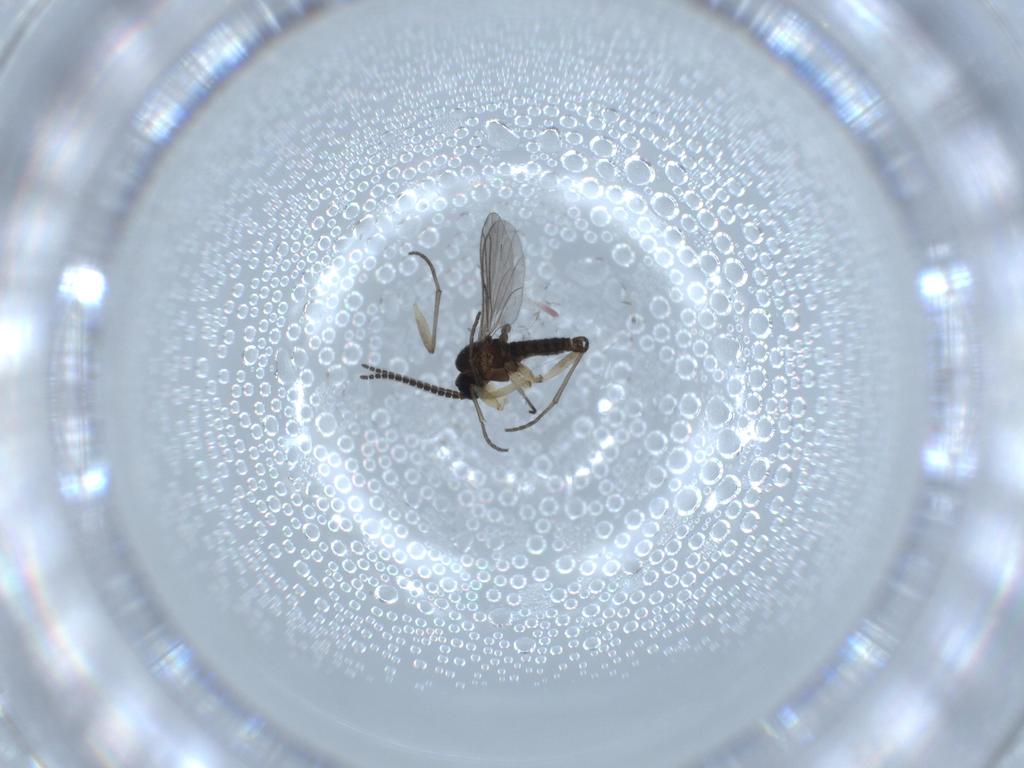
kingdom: Animalia
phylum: Arthropoda
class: Insecta
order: Diptera
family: Sciaridae
